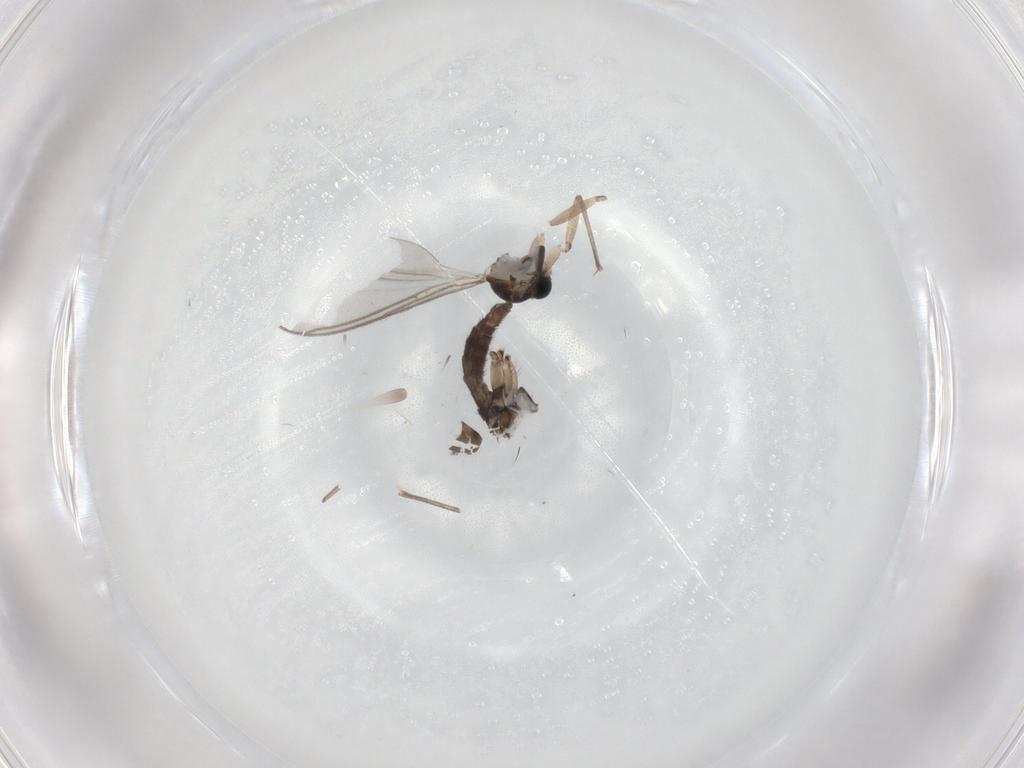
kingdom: Animalia
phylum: Arthropoda
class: Insecta
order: Diptera
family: Sciaridae
